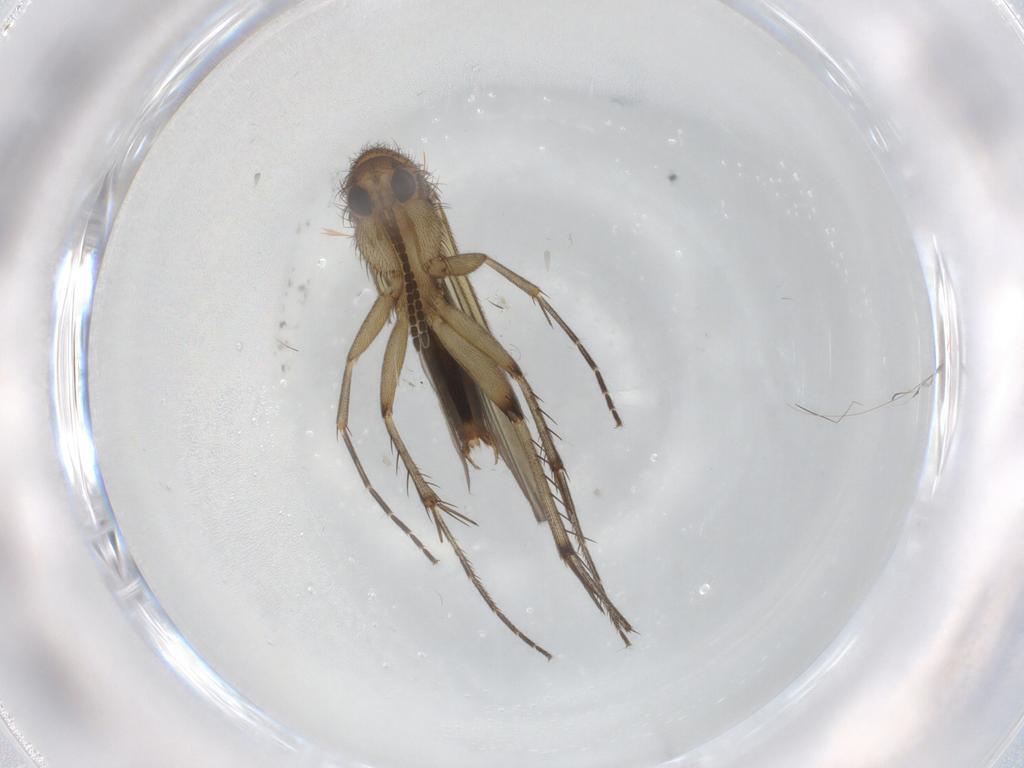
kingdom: Animalia
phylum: Arthropoda
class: Insecta
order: Diptera
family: Mycetophilidae
